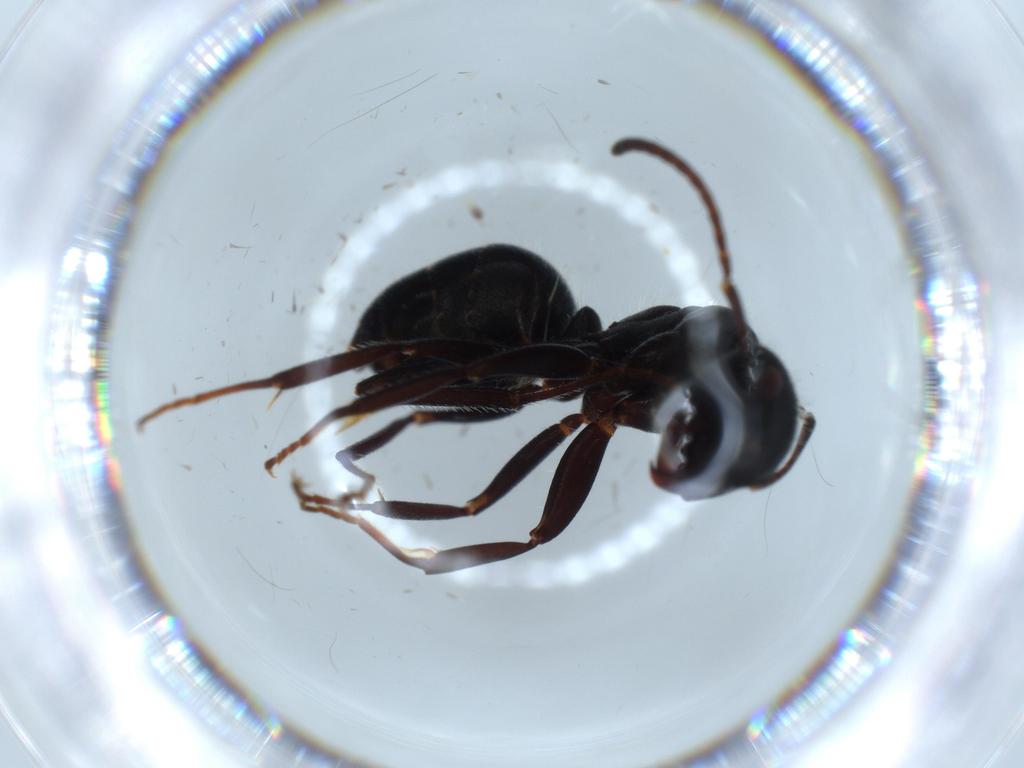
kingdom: Animalia
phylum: Arthropoda
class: Insecta
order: Hymenoptera
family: Formicidae
